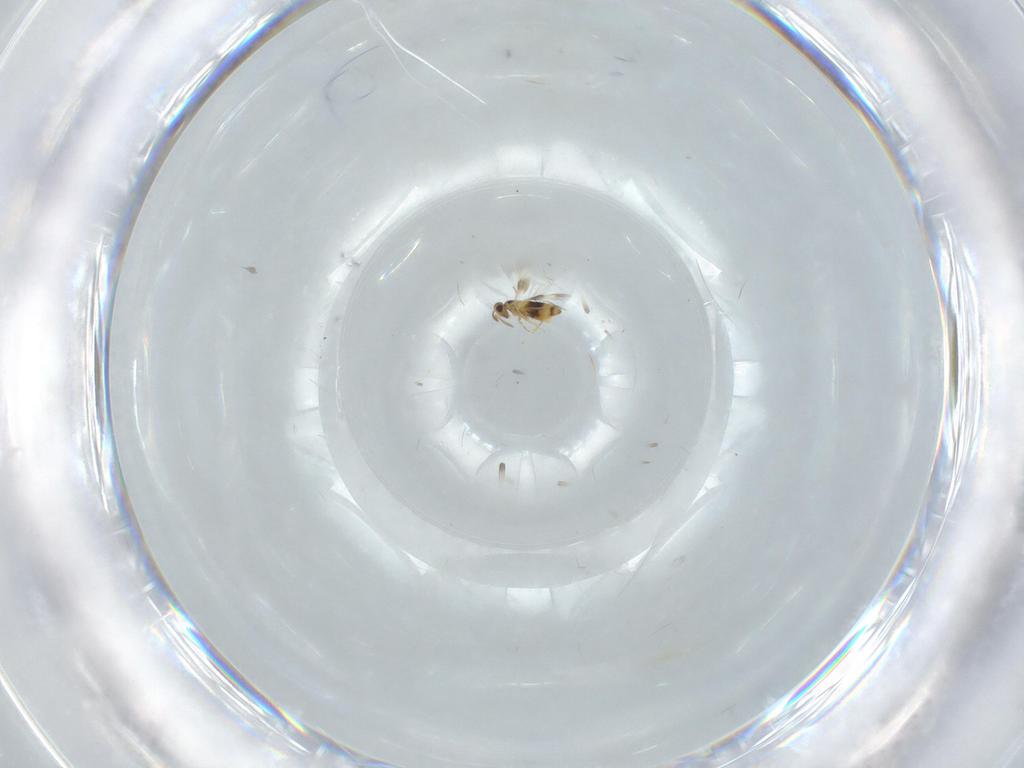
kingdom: Animalia
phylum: Arthropoda
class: Insecta
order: Hymenoptera
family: Signiphoridae
